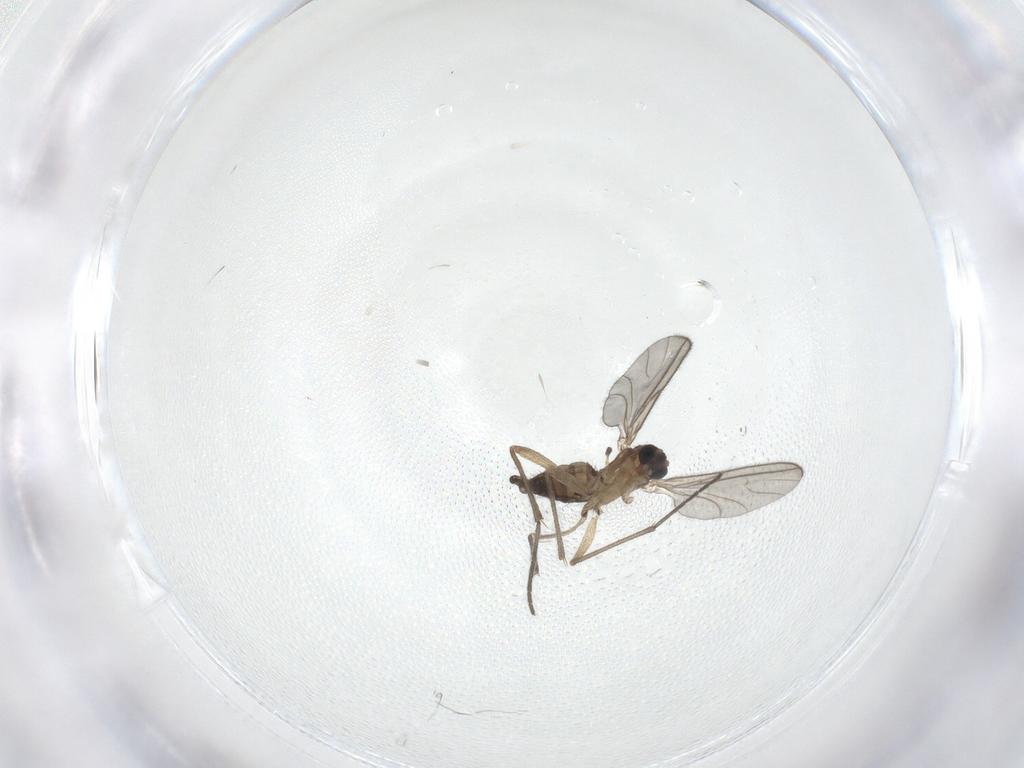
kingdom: Animalia
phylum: Arthropoda
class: Insecta
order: Diptera
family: Sciaridae
